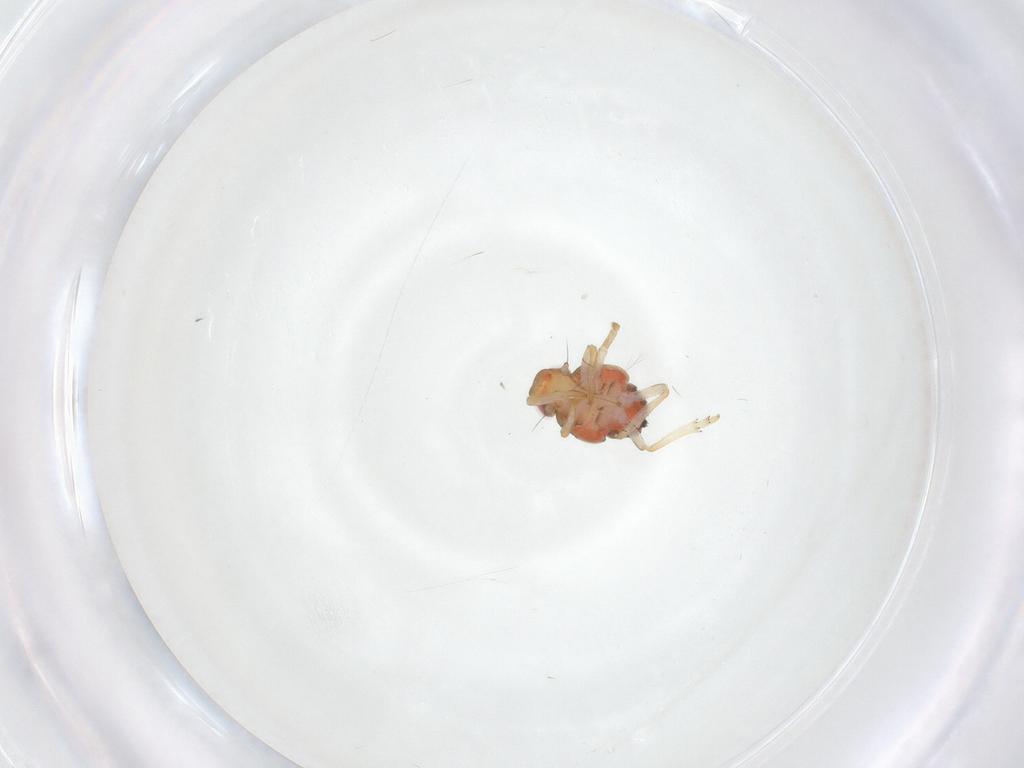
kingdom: Animalia
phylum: Arthropoda
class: Insecta
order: Hemiptera
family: Issidae
